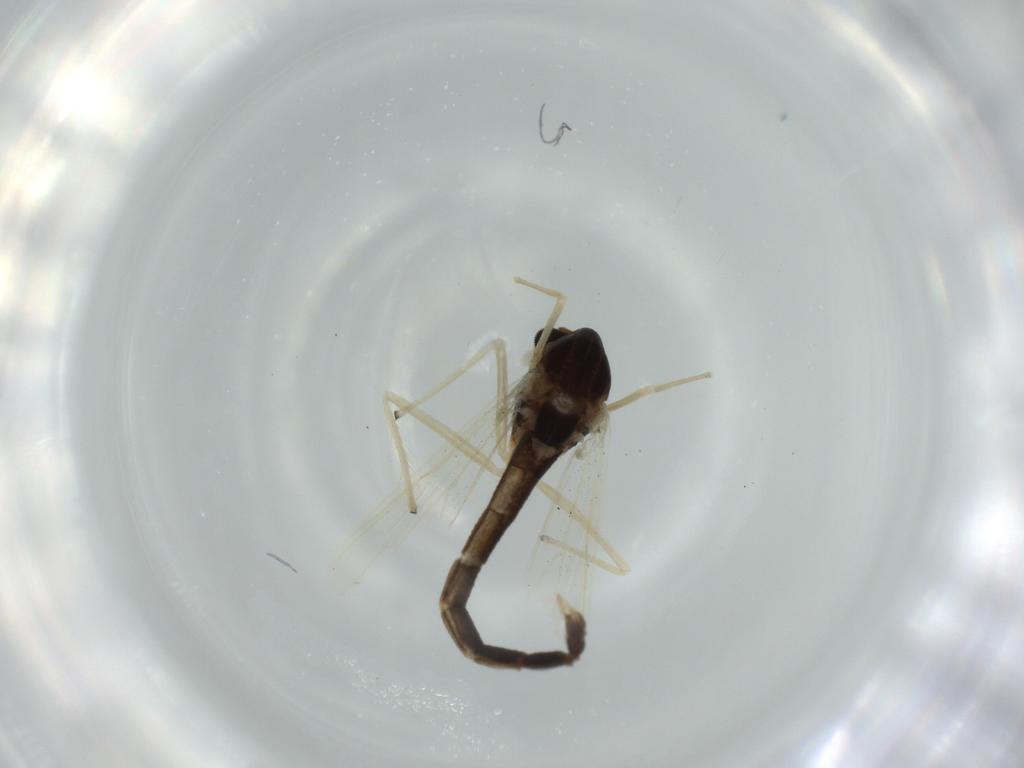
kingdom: Animalia
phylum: Arthropoda
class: Insecta
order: Diptera
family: Chironomidae
